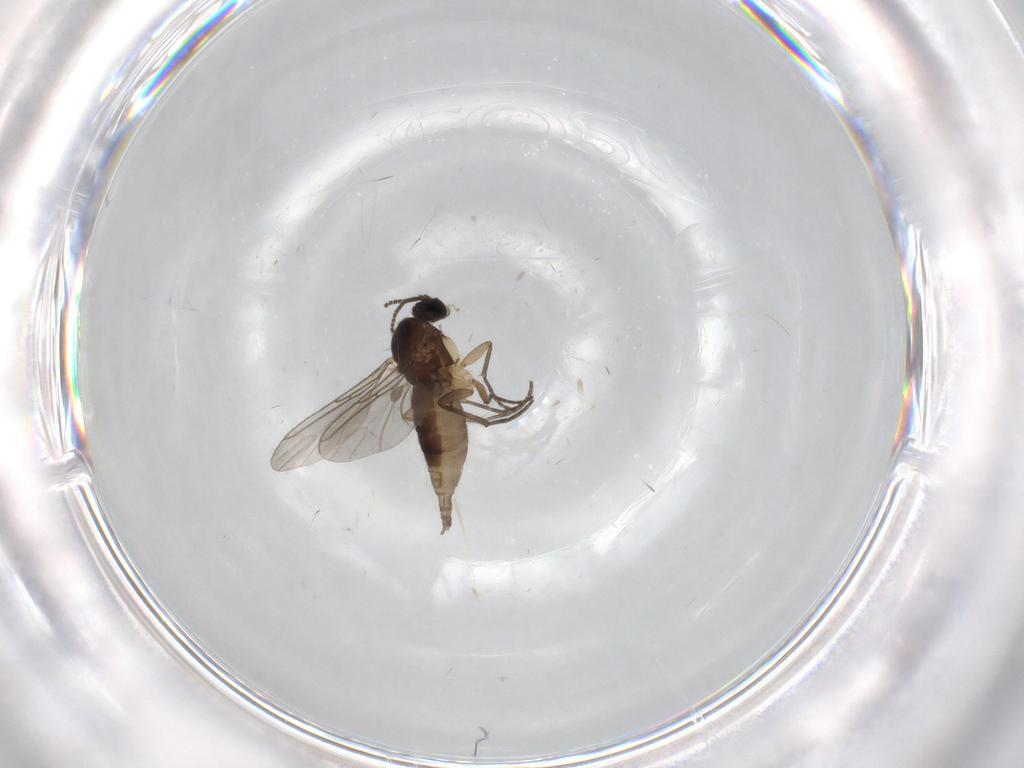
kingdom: Animalia
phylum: Arthropoda
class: Insecta
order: Diptera
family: Sciaridae
